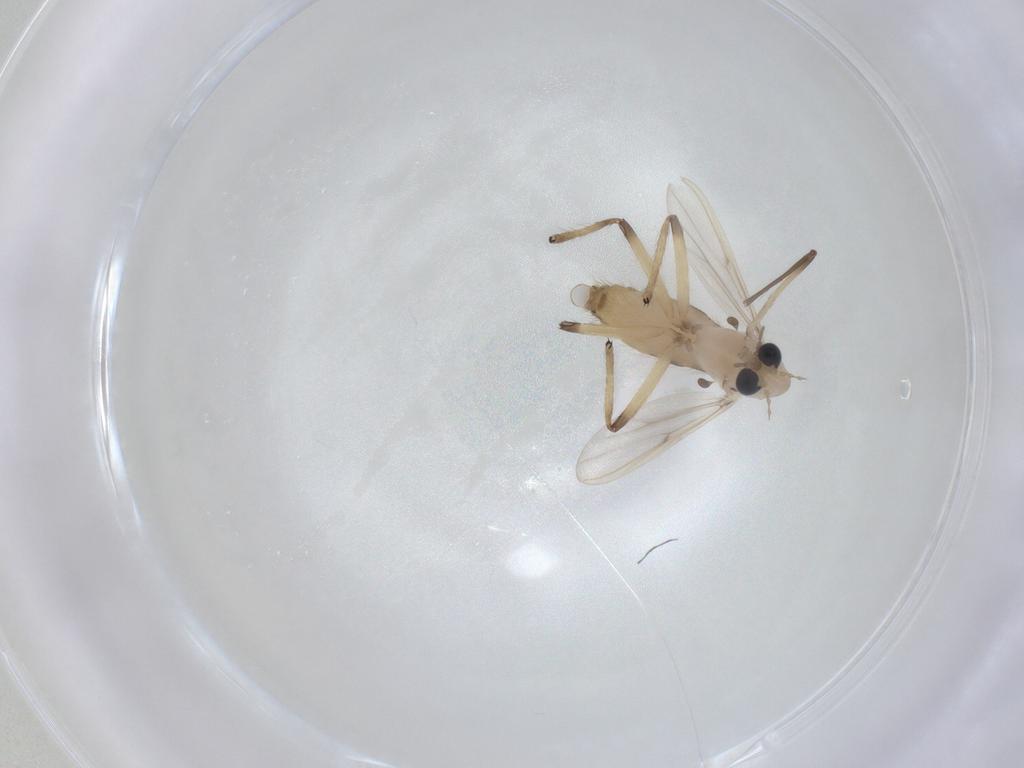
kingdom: Animalia
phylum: Arthropoda
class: Insecta
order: Diptera
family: Chironomidae
